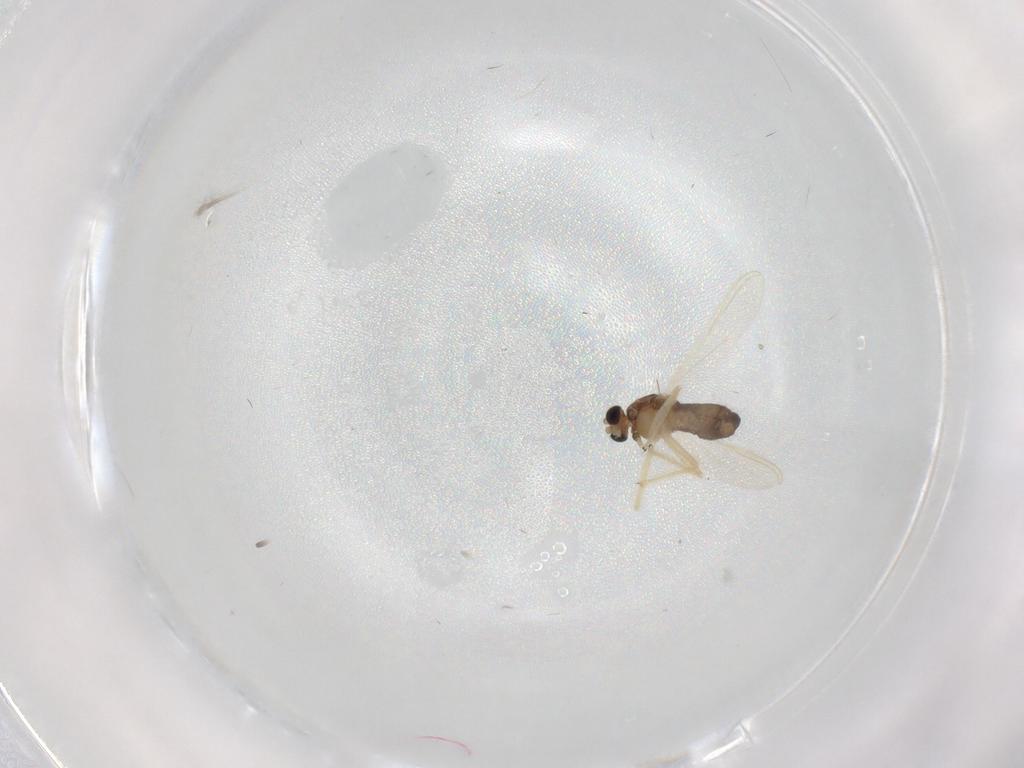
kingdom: Animalia
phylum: Arthropoda
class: Insecta
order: Diptera
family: Chironomidae
